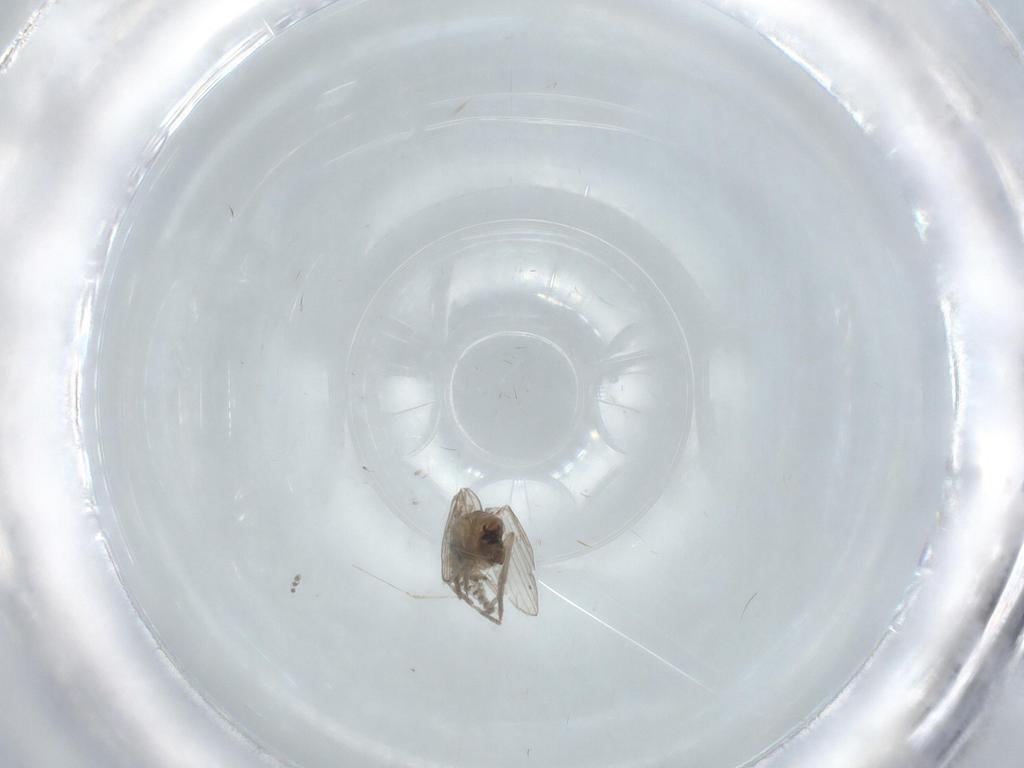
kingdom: Animalia
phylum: Arthropoda
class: Insecta
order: Diptera
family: Psychodidae
